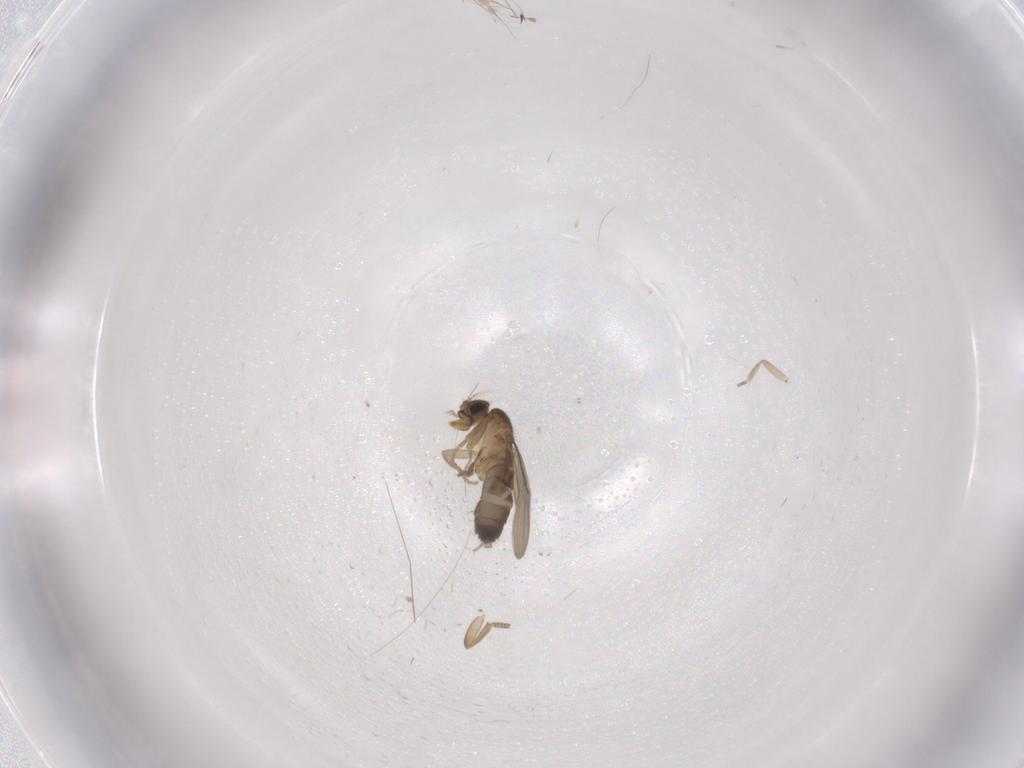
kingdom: Animalia
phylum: Arthropoda
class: Insecta
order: Diptera
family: Phoridae
